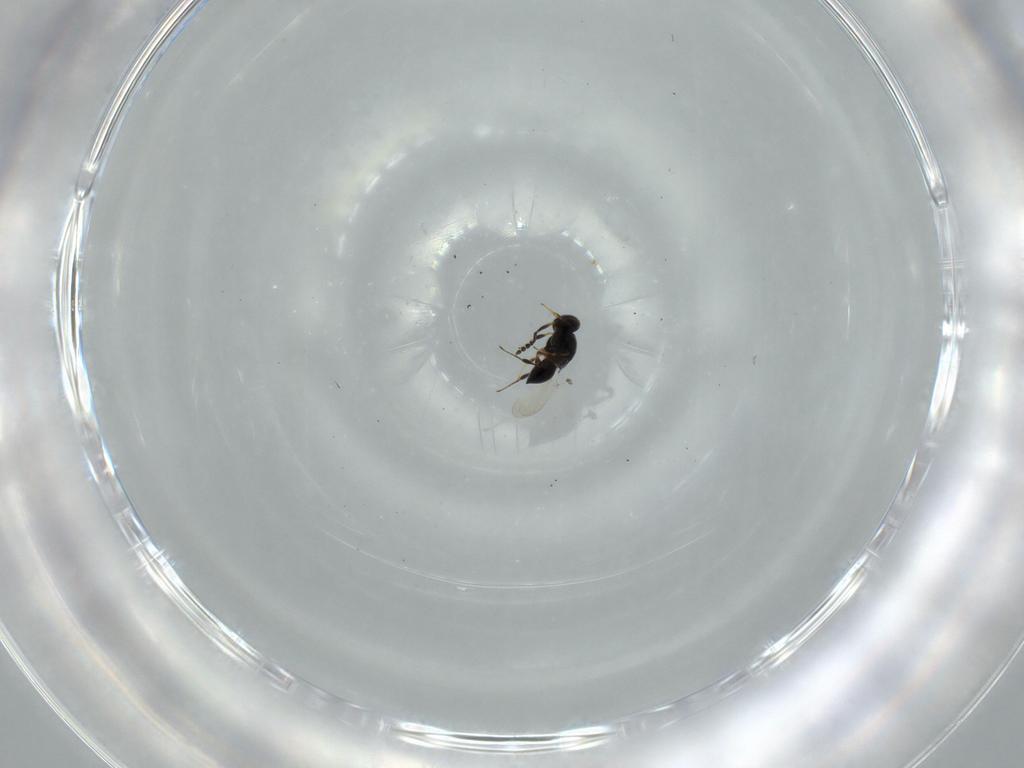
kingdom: Animalia
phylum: Arthropoda
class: Insecta
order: Hymenoptera
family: Platygastridae
